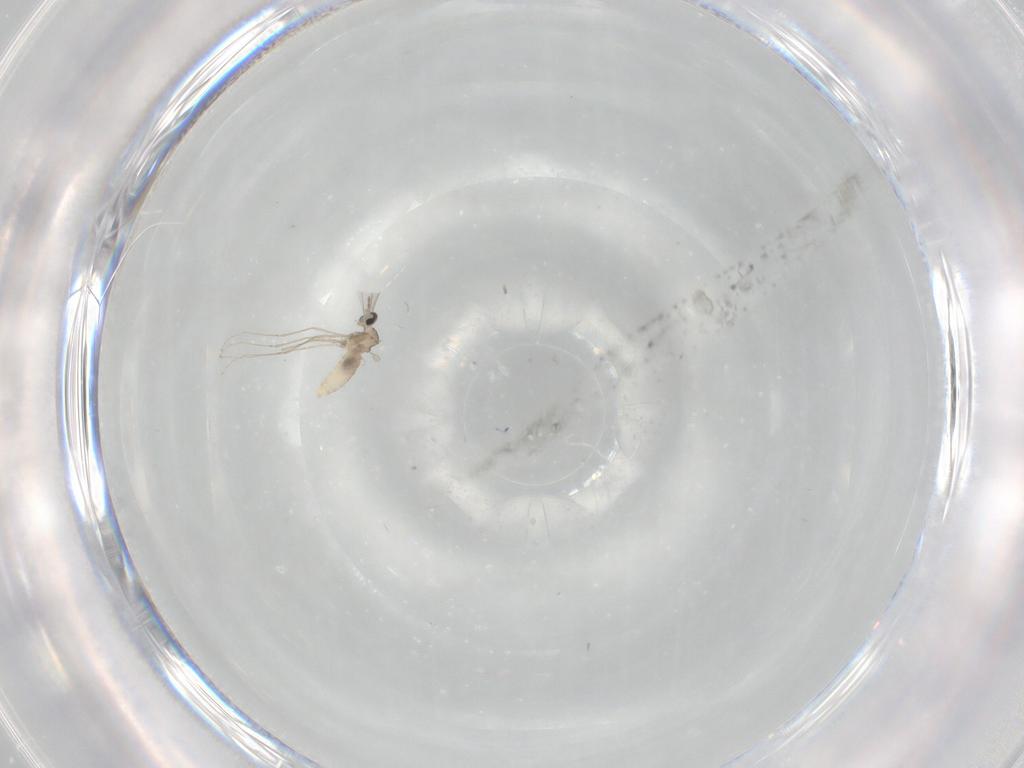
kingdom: Animalia
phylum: Arthropoda
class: Insecta
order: Diptera
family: Cecidomyiidae
